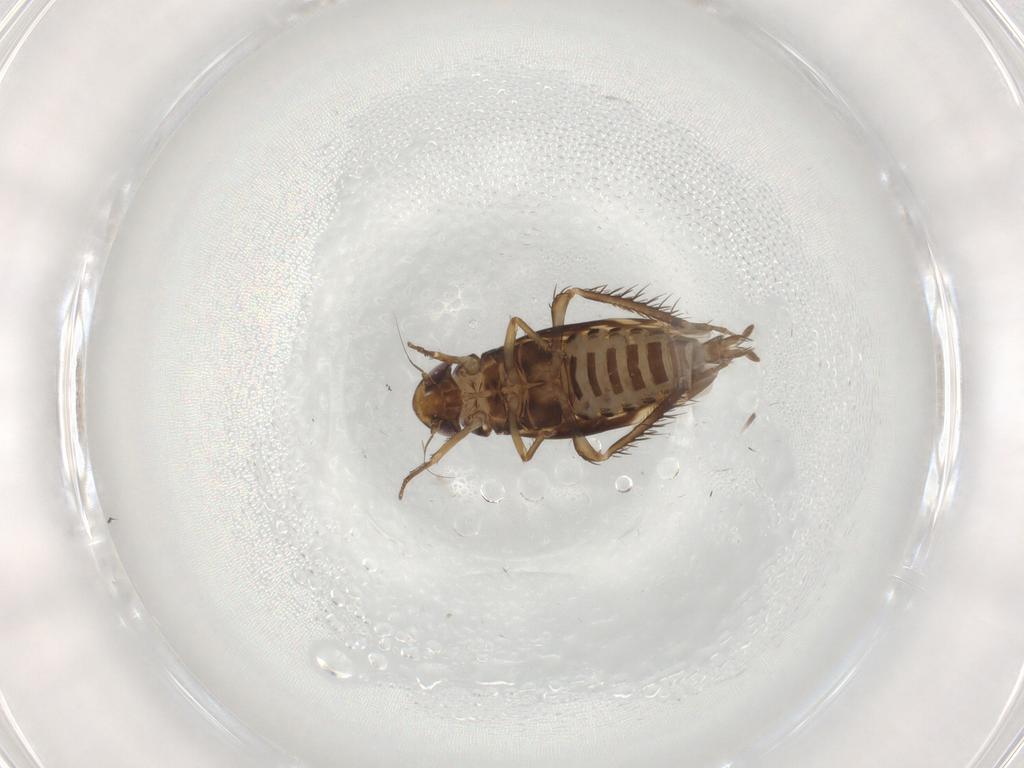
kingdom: Animalia
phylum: Arthropoda
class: Insecta
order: Hemiptera
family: Cicadellidae
